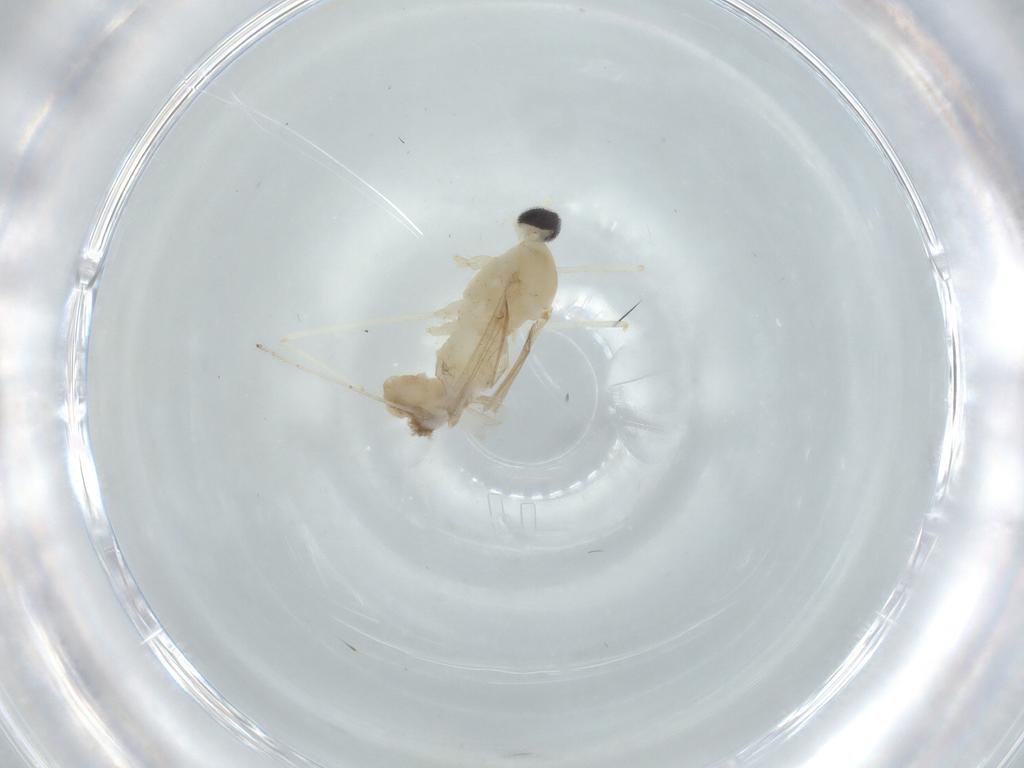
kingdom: Animalia
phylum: Arthropoda
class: Insecta
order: Diptera
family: Cecidomyiidae
